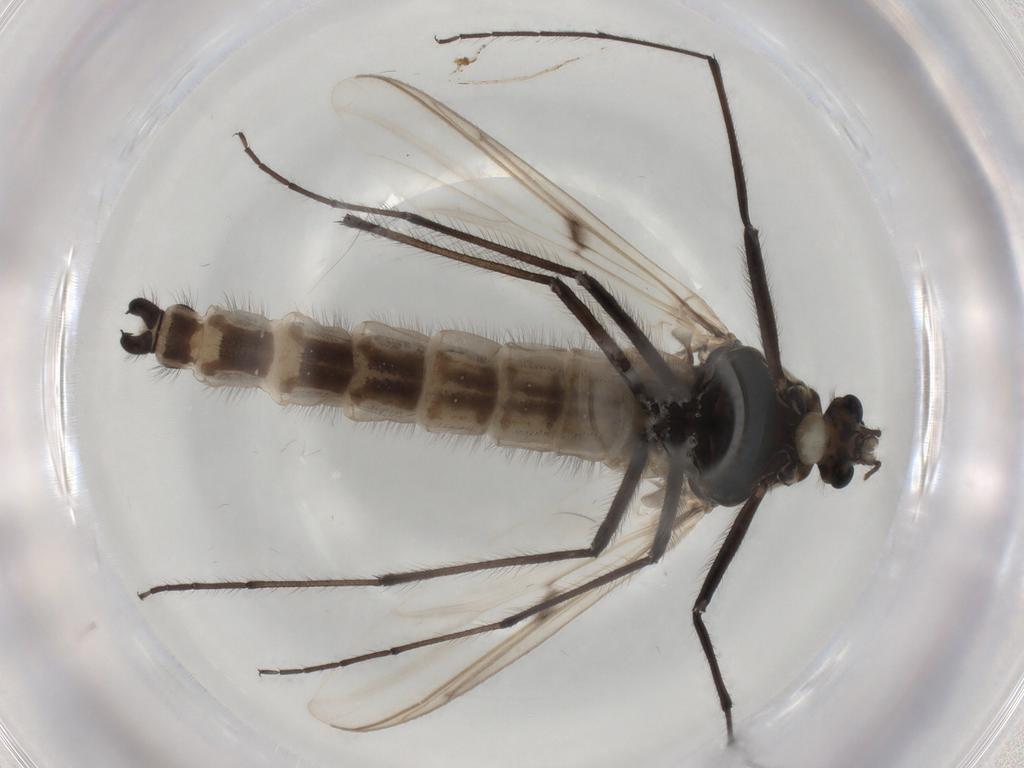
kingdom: Animalia
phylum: Arthropoda
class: Insecta
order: Diptera
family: Chironomidae
